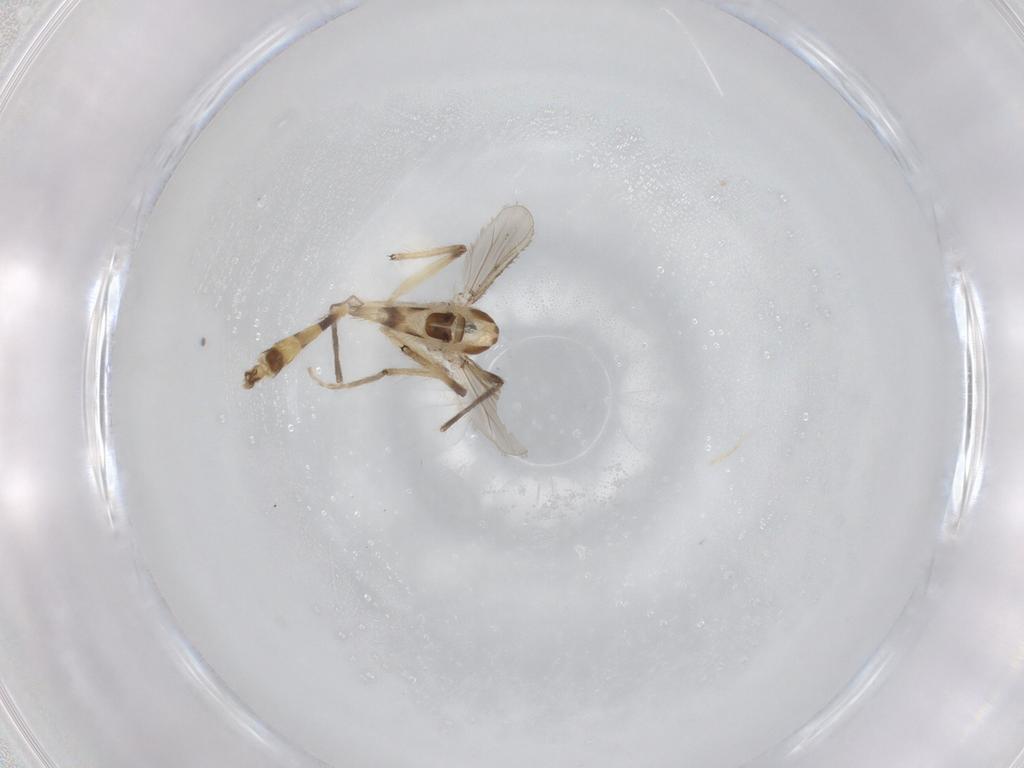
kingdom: Animalia
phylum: Arthropoda
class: Insecta
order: Diptera
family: Chironomidae
